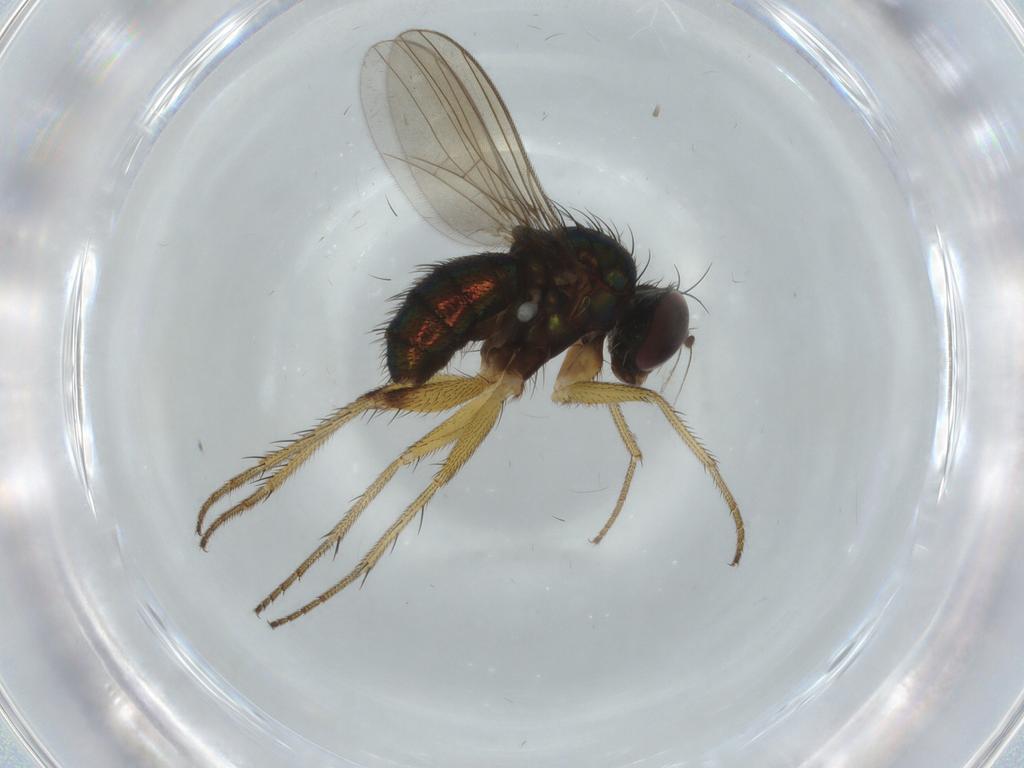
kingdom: Animalia
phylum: Arthropoda
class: Insecta
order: Diptera
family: Dolichopodidae
